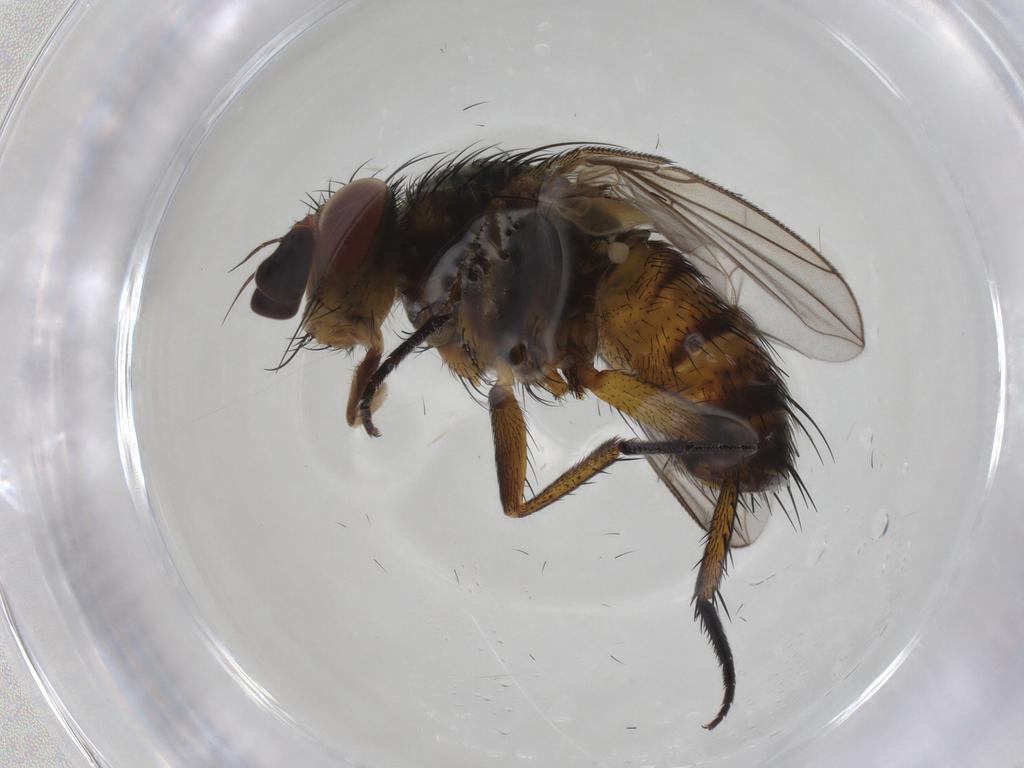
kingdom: Animalia
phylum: Arthropoda
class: Insecta
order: Diptera
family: Tachinidae
